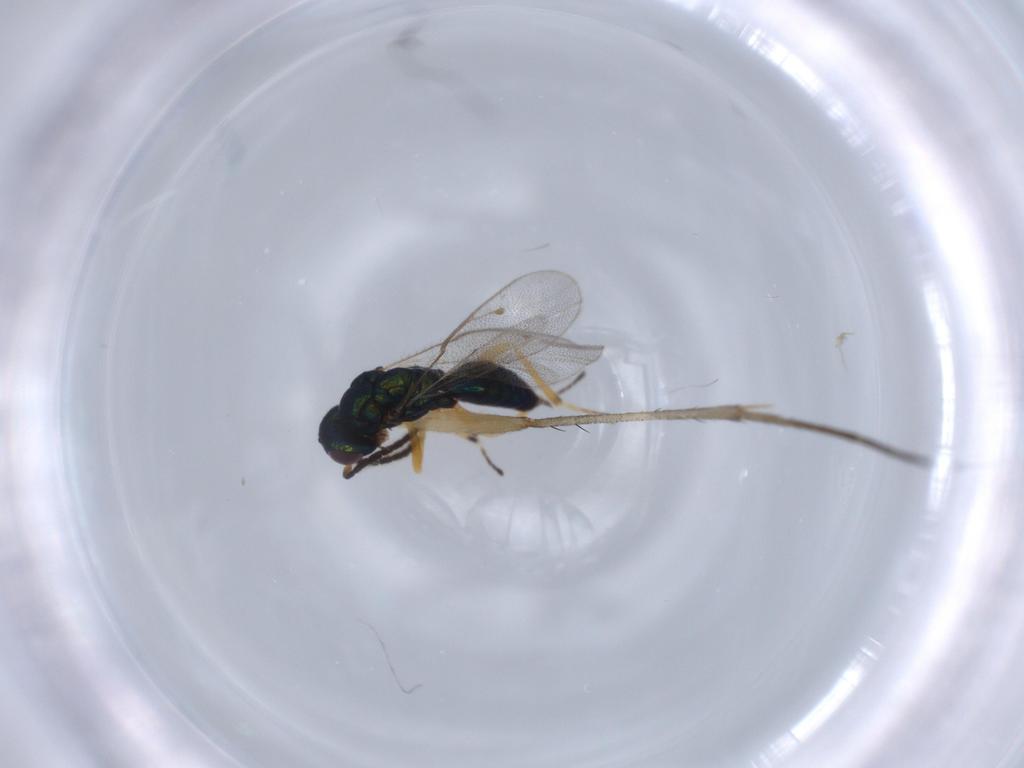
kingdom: Animalia
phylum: Arthropoda
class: Insecta
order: Hymenoptera
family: Pteromalidae
